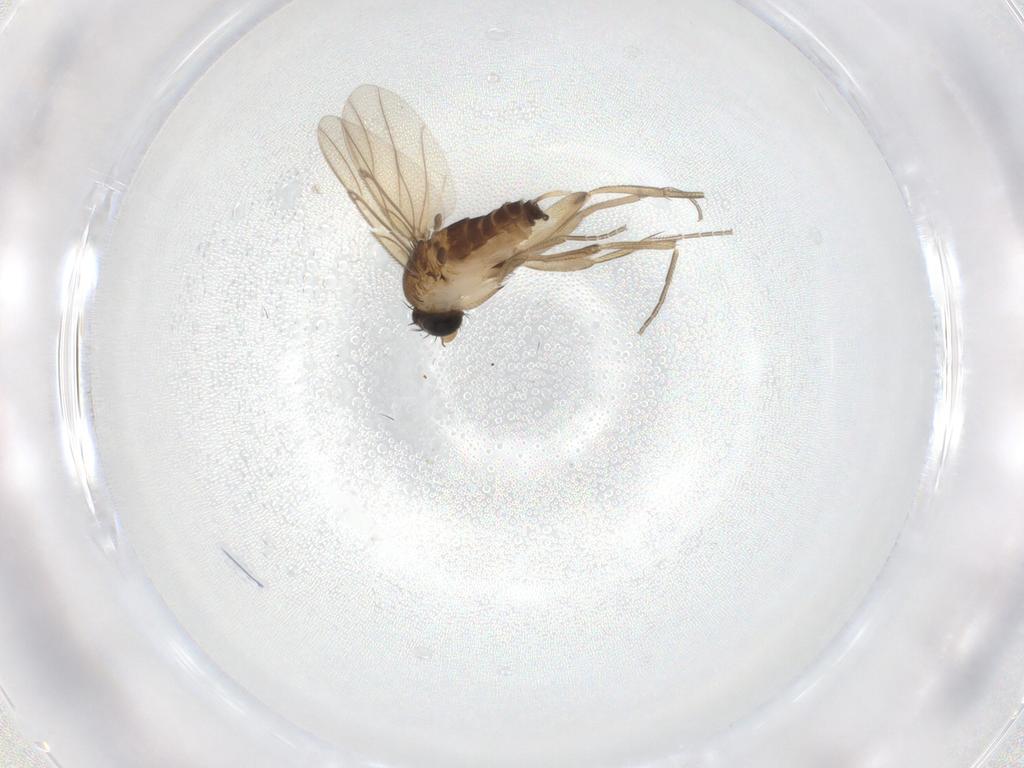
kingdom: Animalia
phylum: Arthropoda
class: Insecta
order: Diptera
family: Phoridae
